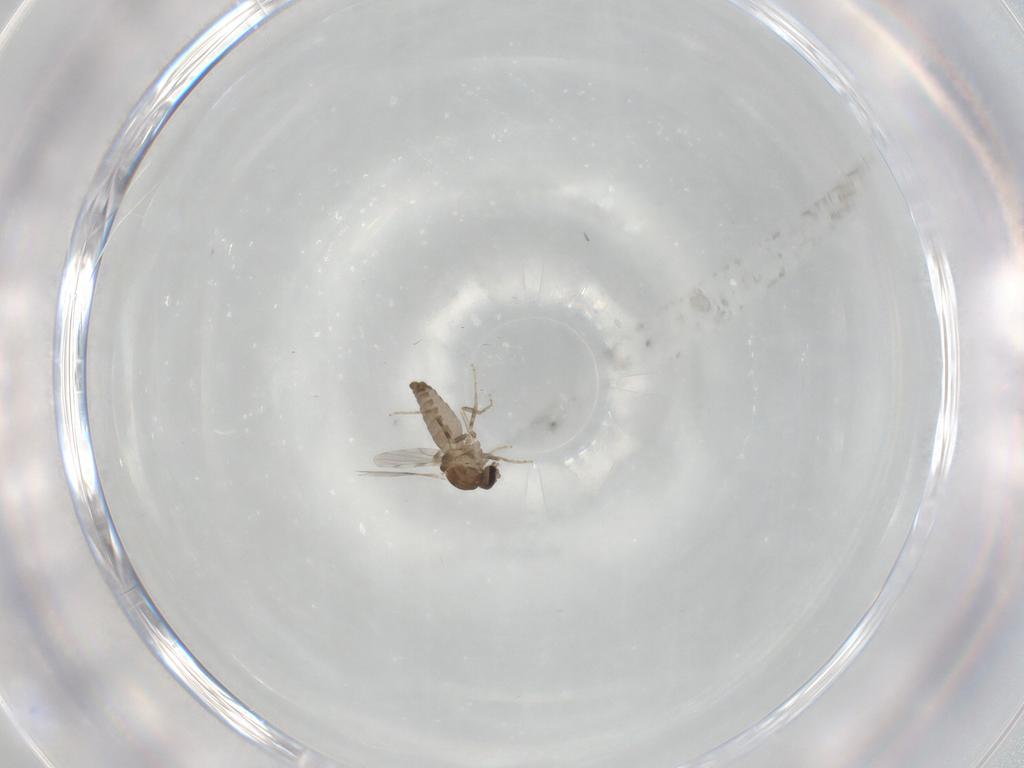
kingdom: Animalia
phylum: Arthropoda
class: Insecta
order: Diptera
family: Ceratopogonidae
